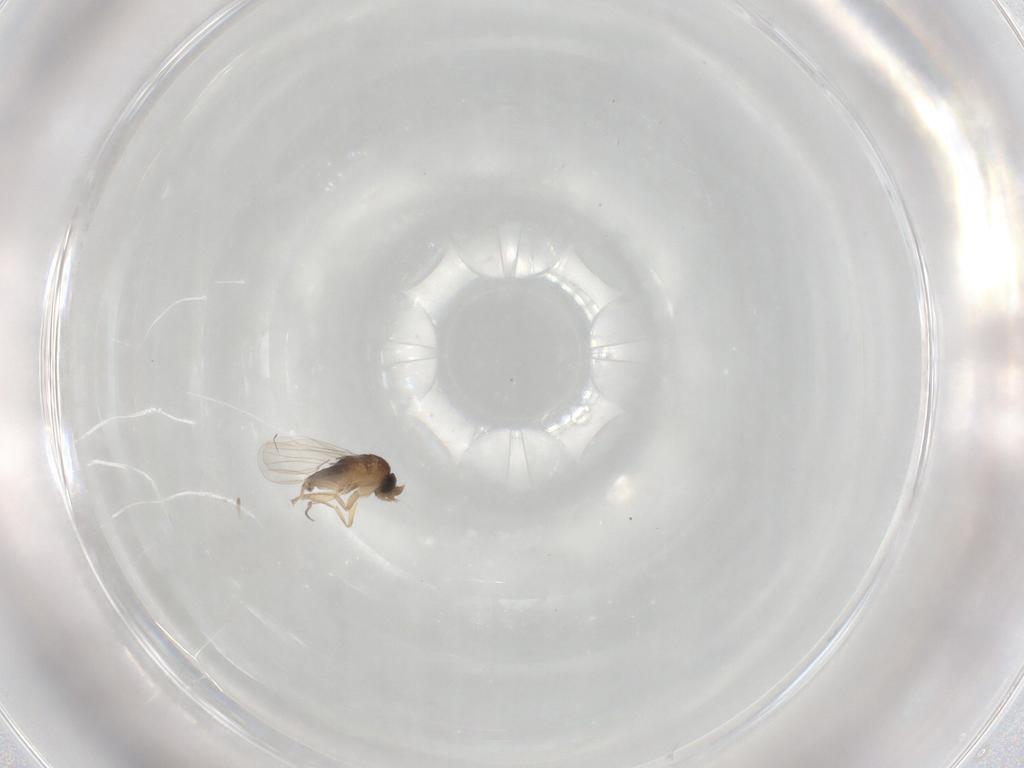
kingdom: Animalia
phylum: Arthropoda
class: Insecta
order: Diptera
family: Phoridae
